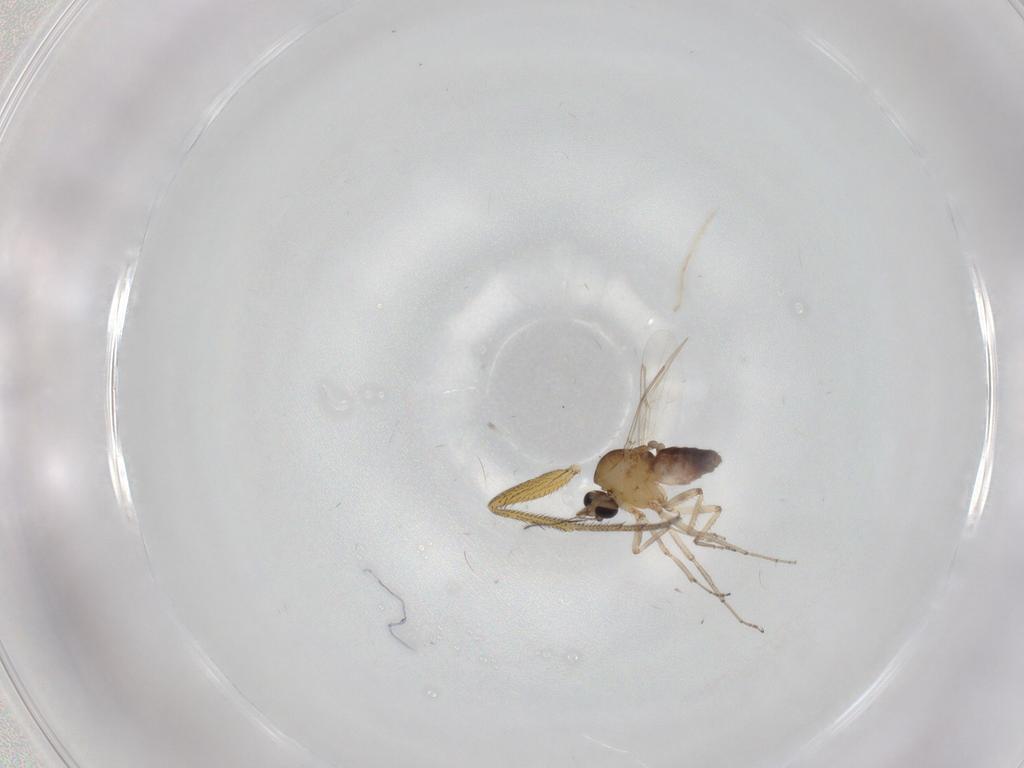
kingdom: Animalia
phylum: Arthropoda
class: Insecta
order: Diptera
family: Ceratopogonidae
